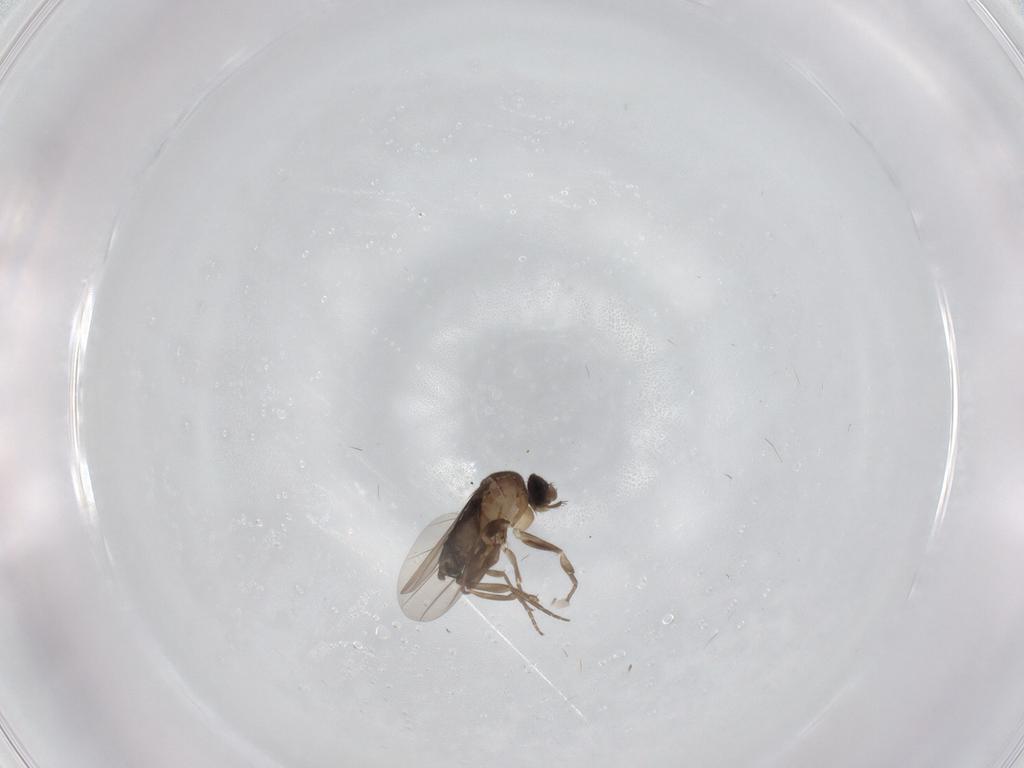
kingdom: Animalia
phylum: Arthropoda
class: Insecta
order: Diptera
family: Phoridae
